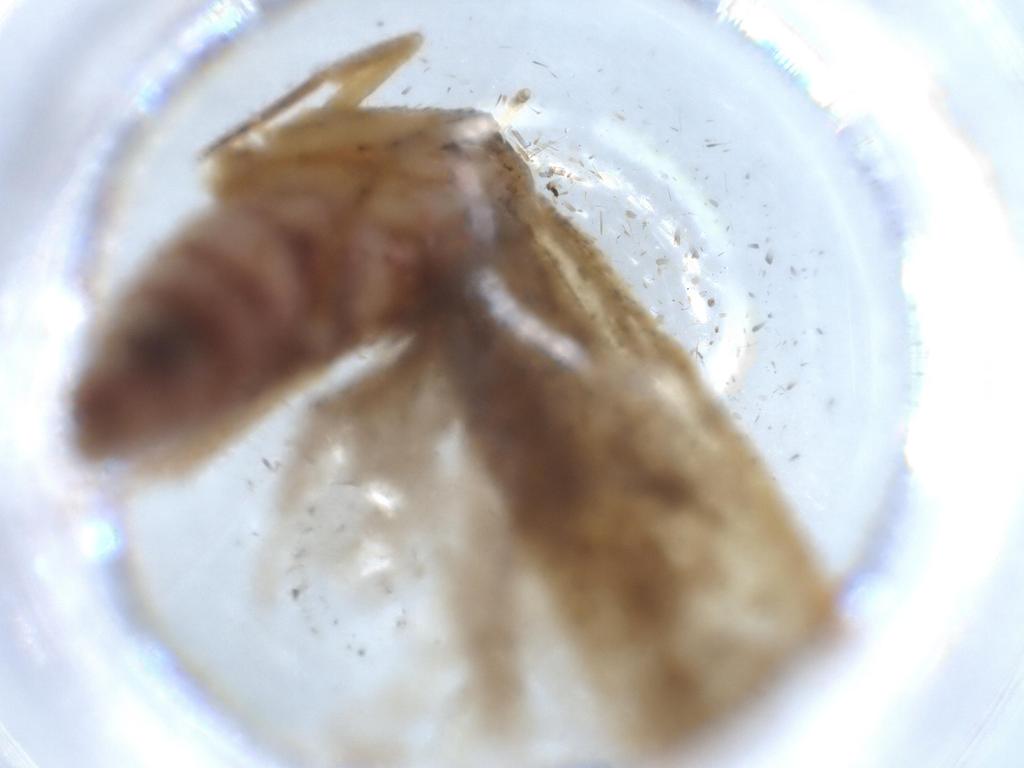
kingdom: Animalia
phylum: Arthropoda
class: Insecta
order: Lepidoptera
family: Autostichidae
